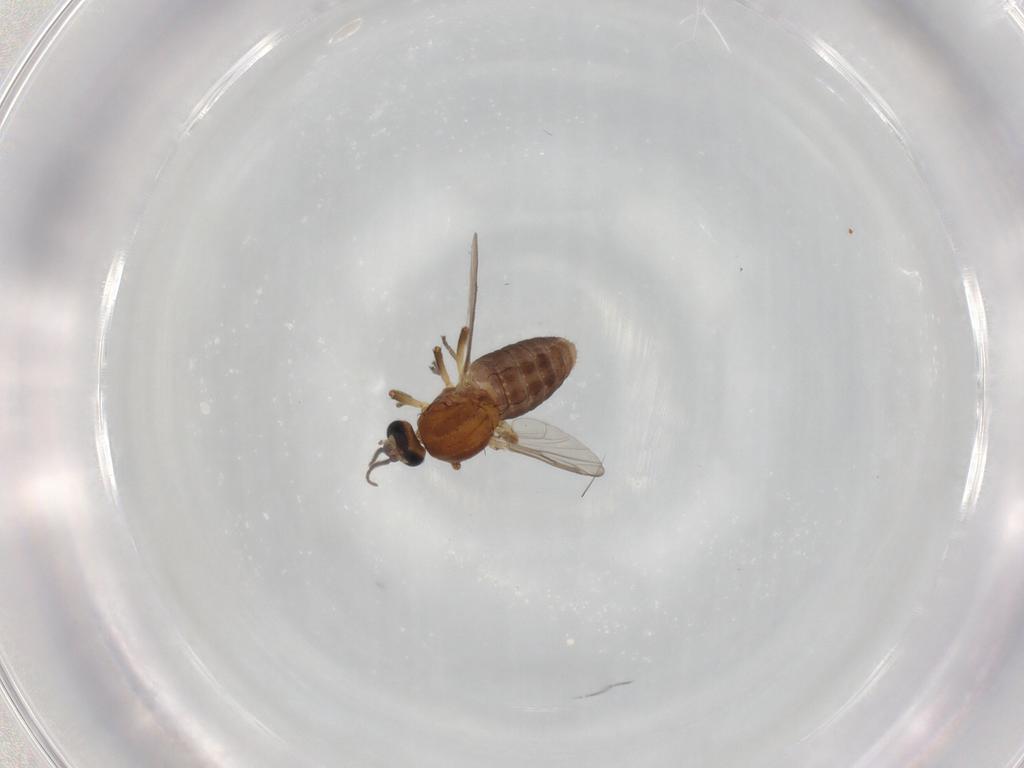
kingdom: Animalia
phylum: Arthropoda
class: Insecta
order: Diptera
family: Ceratopogonidae
